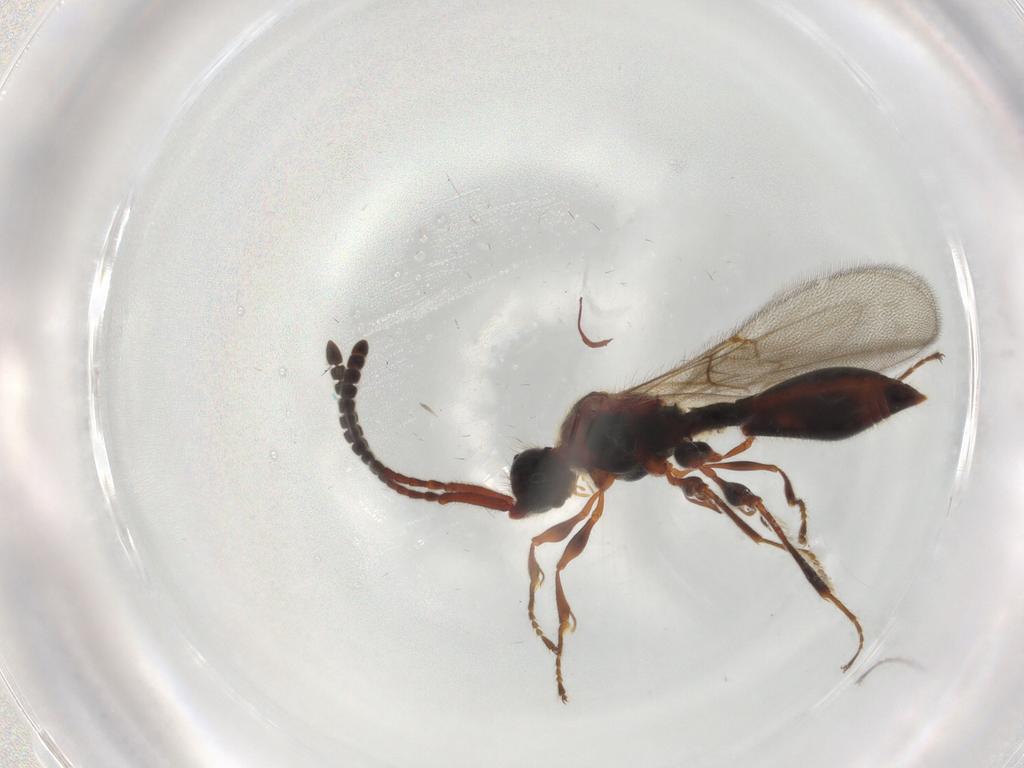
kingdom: Animalia
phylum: Arthropoda
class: Insecta
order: Hymenoptera
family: Diapriidae
